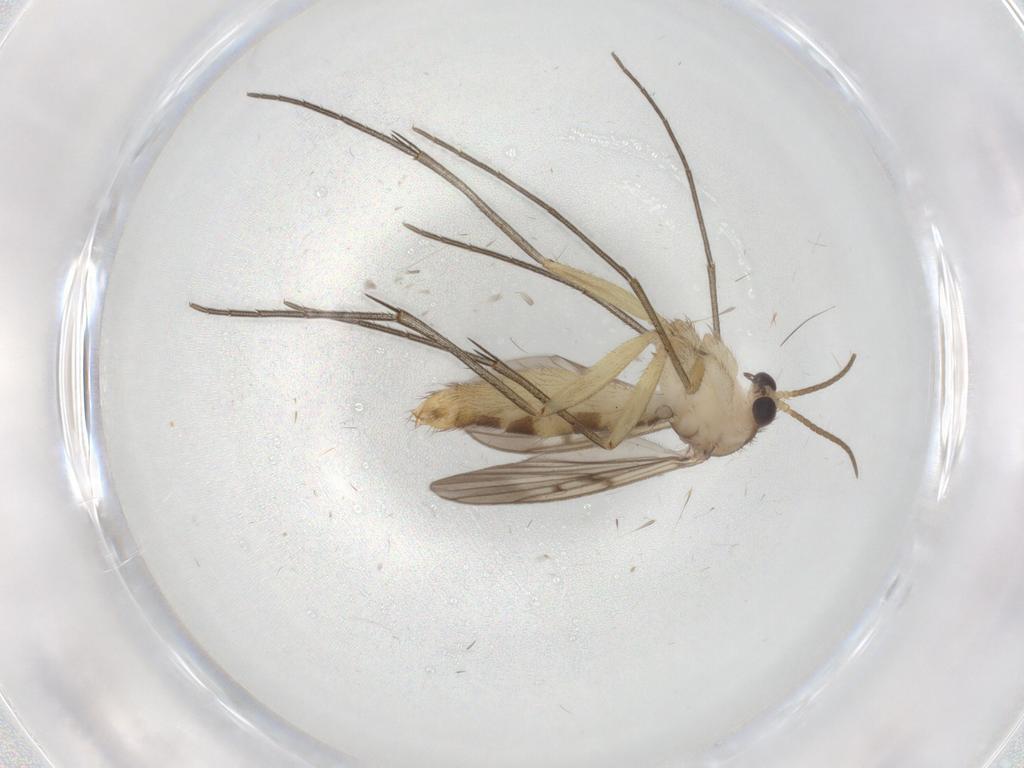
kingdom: Animalia
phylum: Arthropoda
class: Insecta
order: Diptera
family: Phoridae
